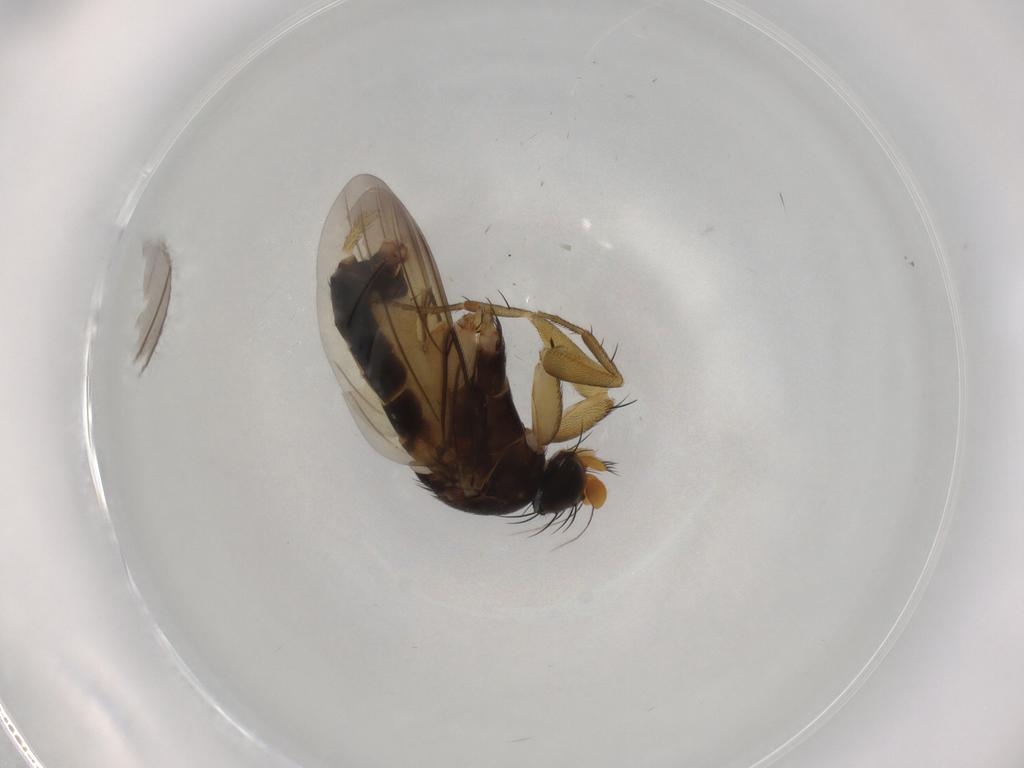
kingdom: Animalia
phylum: Arthropoda
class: Insecta
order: Diptera
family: Phoridae
